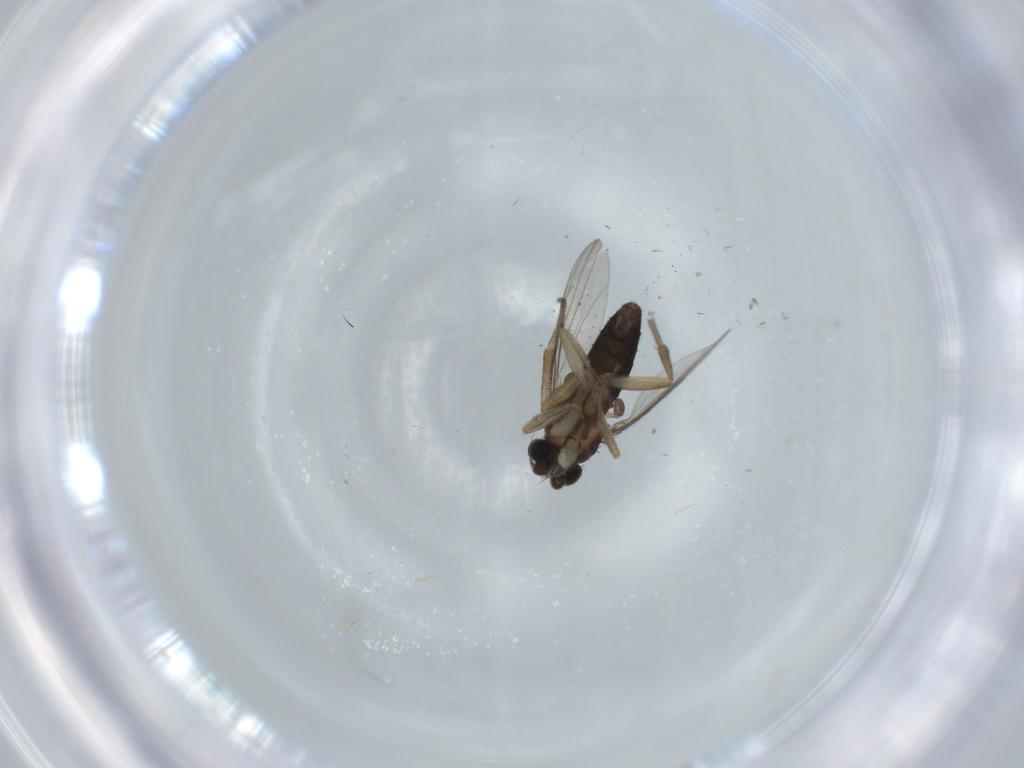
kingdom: Animalia
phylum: Arthropoda
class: Insecta
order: Diptera
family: Cecidomyiidae
